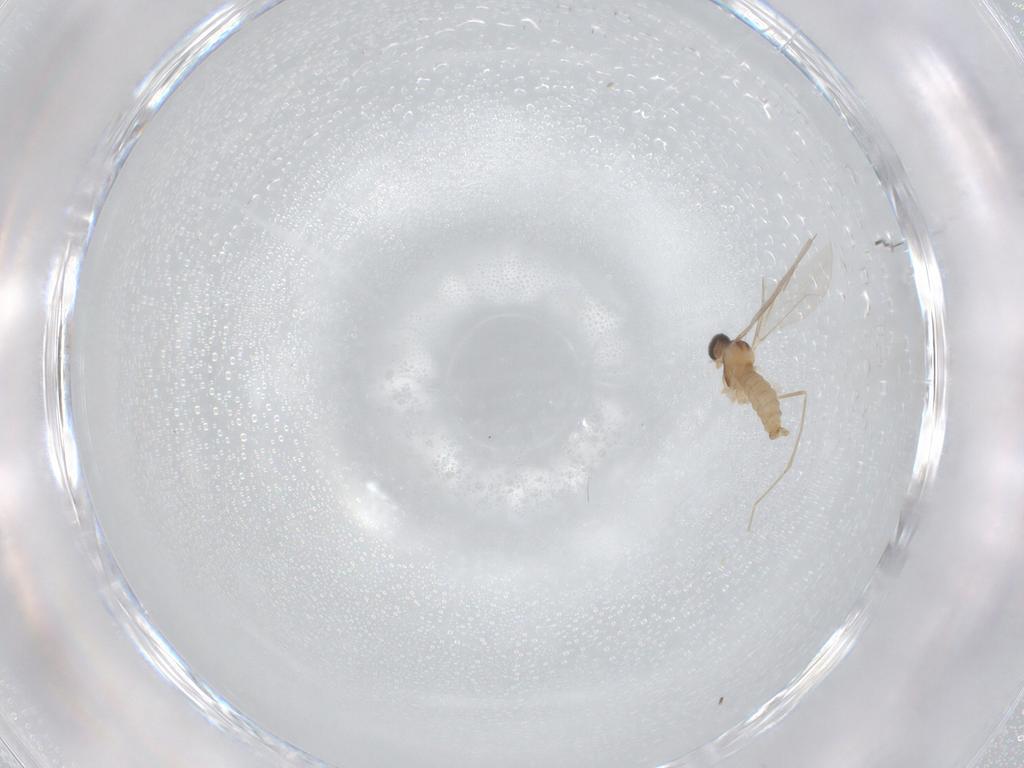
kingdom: Animalia
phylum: Arthropoda
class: Insecta
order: Diptera
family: Cecidomyiidae
